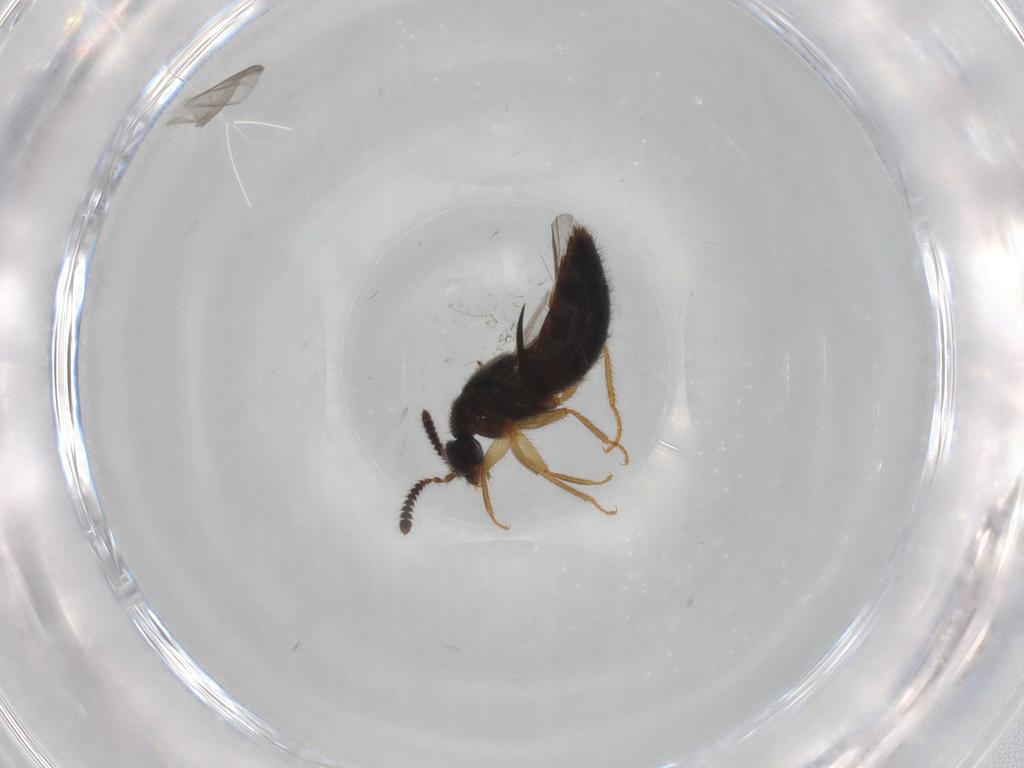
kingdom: Animalia
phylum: Arthropoda
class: Insecta
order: Coleoptera
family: Staphylinidae
